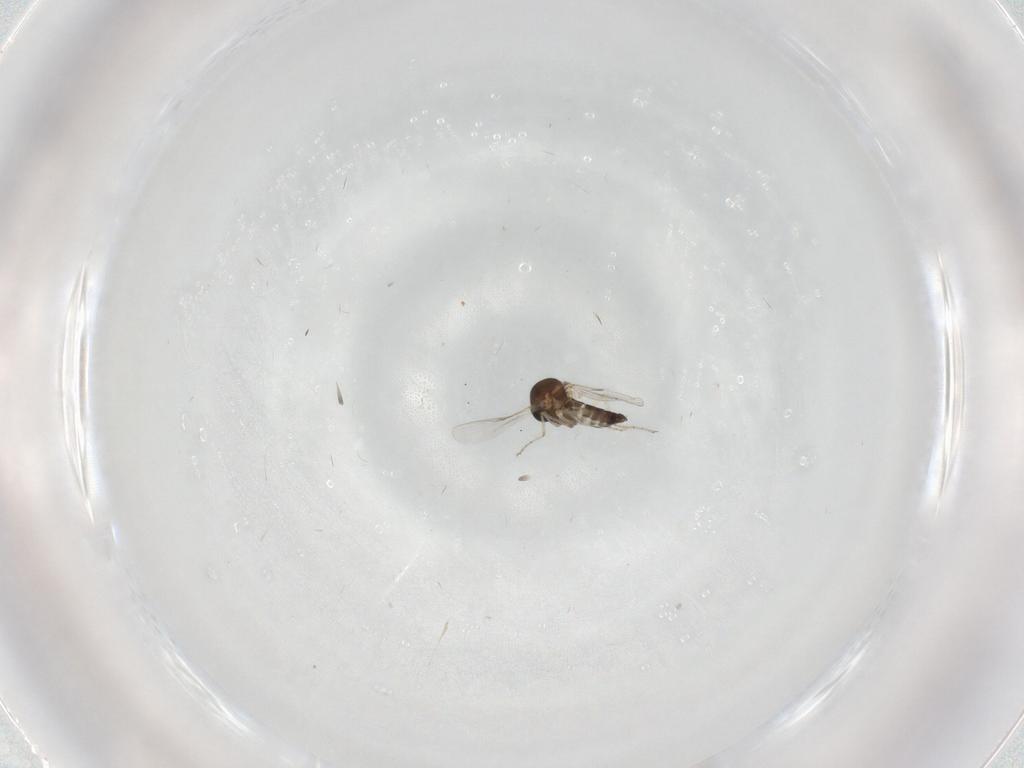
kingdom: Animalia
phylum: Arthropoda
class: Insecta
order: Diptera
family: Ceratopogonidae
